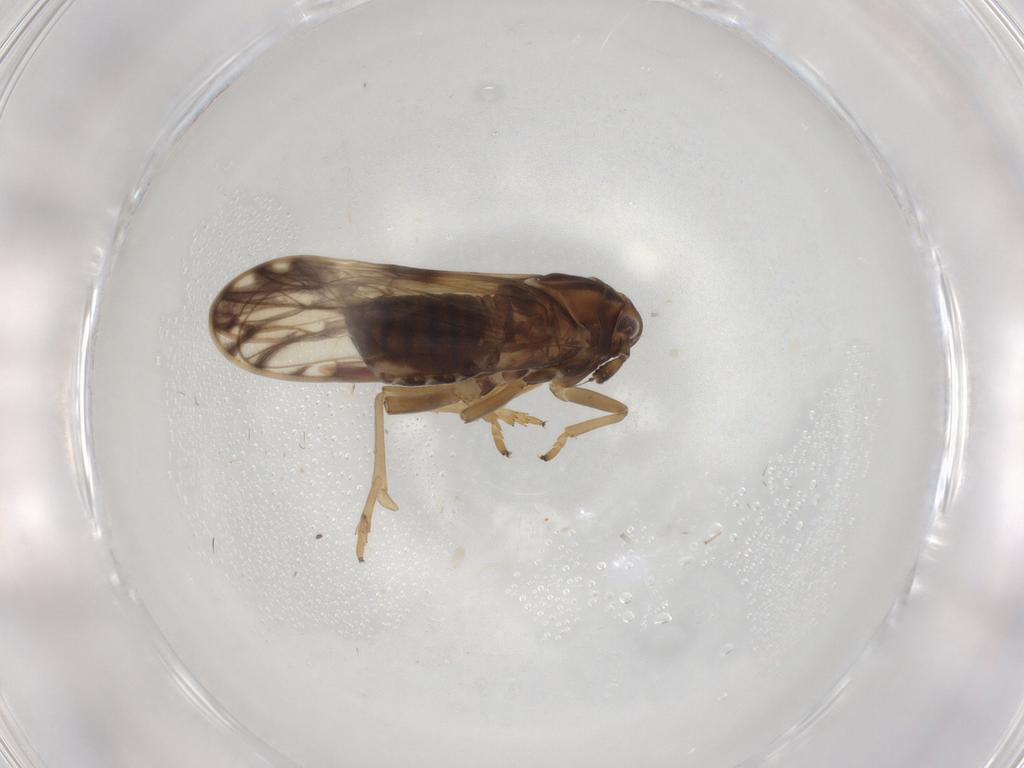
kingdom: Animalia
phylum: Arthropoda
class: Insecta
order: Hemiptera
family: Delphacidae
